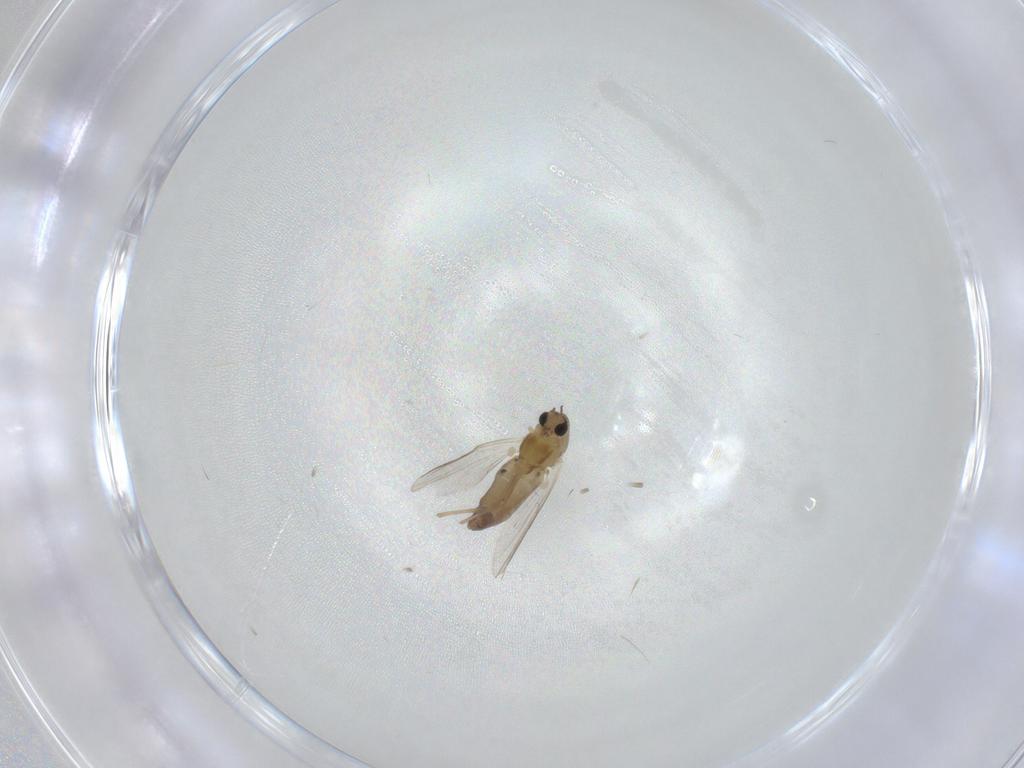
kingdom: Animalia
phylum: Arthropoda
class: Insecta
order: Diptera
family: Chironomidae
